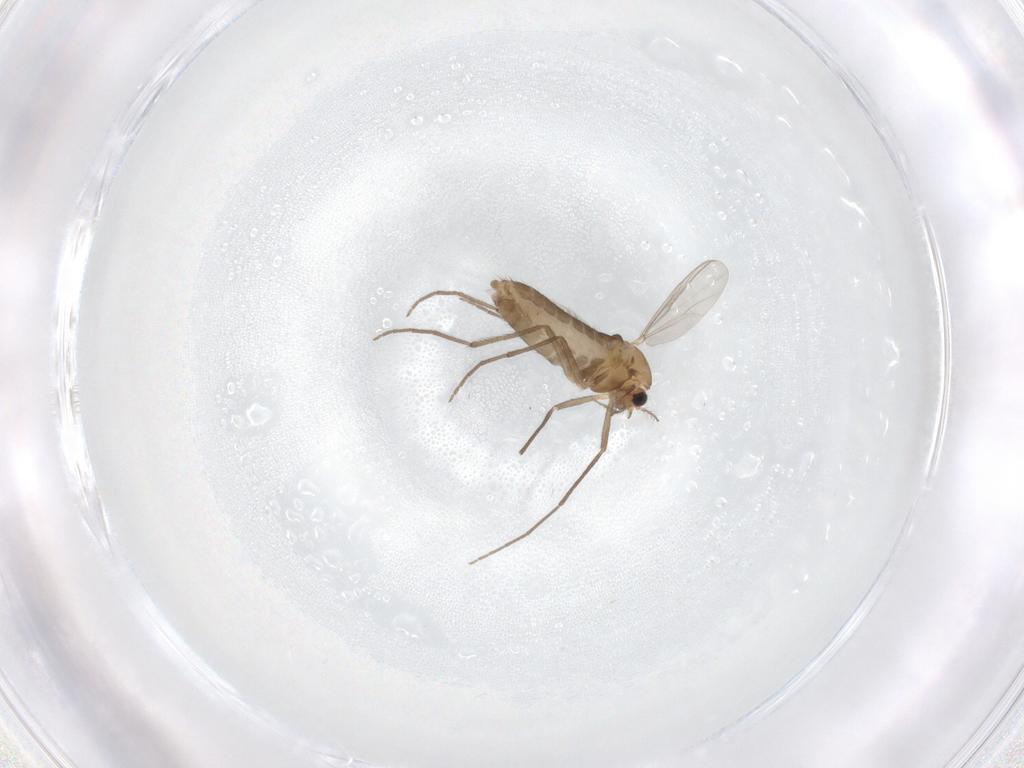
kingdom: Animalia
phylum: Arthropoda
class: Insecta
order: Diptera
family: Chironomidae
